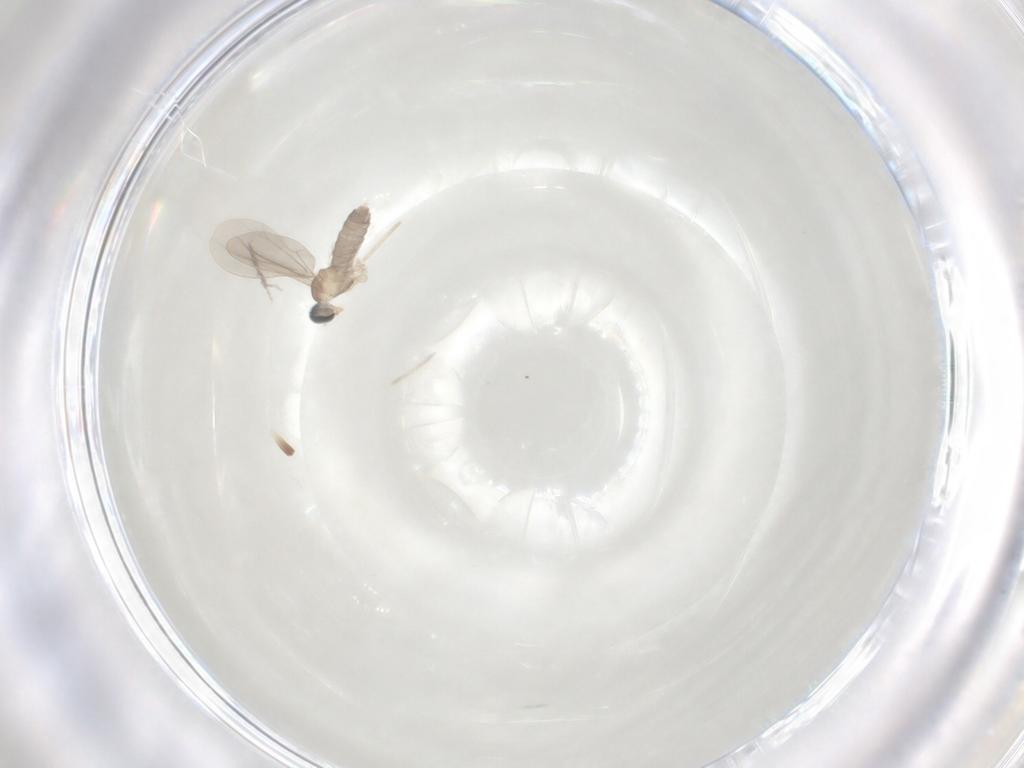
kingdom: Animalia
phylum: Arthropoda
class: Insecta
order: Diptera
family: Cecidomyiidae
